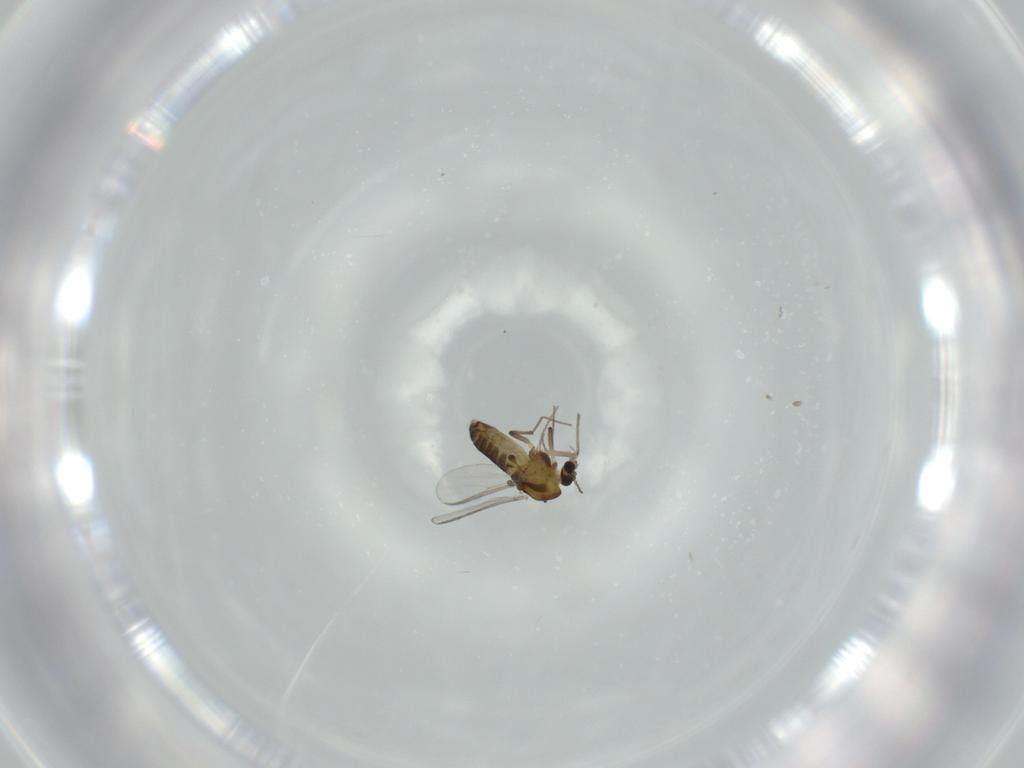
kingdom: Animalia
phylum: Arthropoda
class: Insecta
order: Diptera
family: Chironomidae
